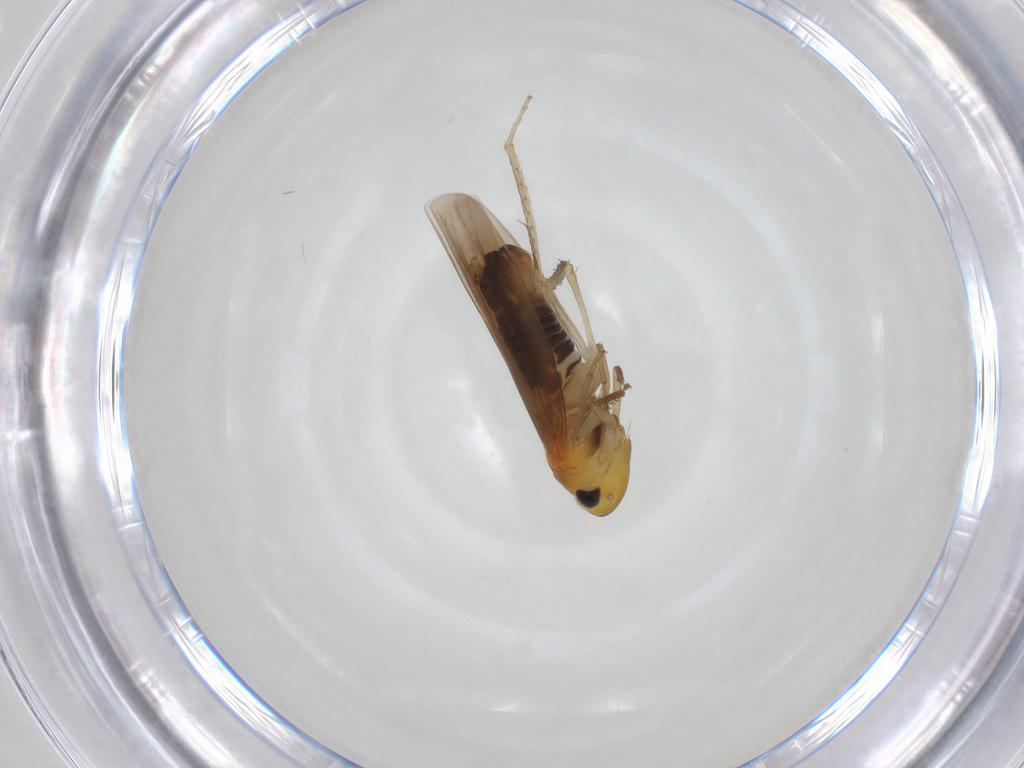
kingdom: Animalia
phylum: Arthropoda
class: Insecta
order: Hemiptera
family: Cicadellidae
